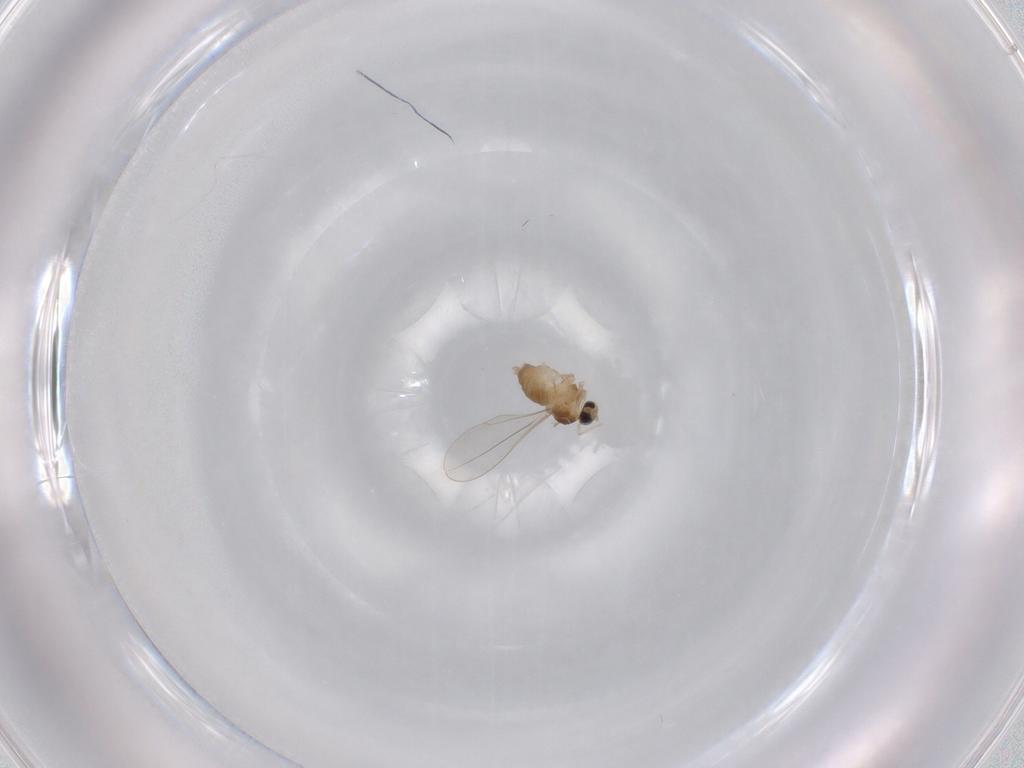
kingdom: Animalia
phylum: Arthropoda
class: Insecta
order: Diptera
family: Cecidomyiidae
